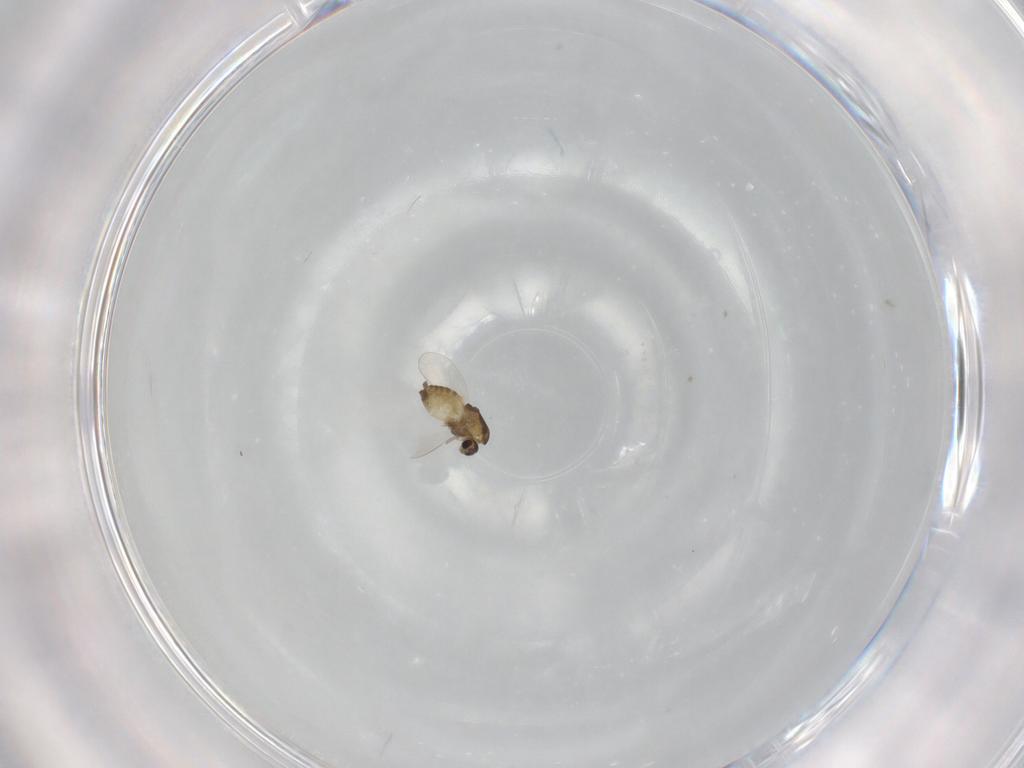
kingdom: Animalia
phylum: Arthropoda
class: Insecta
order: Diptera
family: Chironomidae
